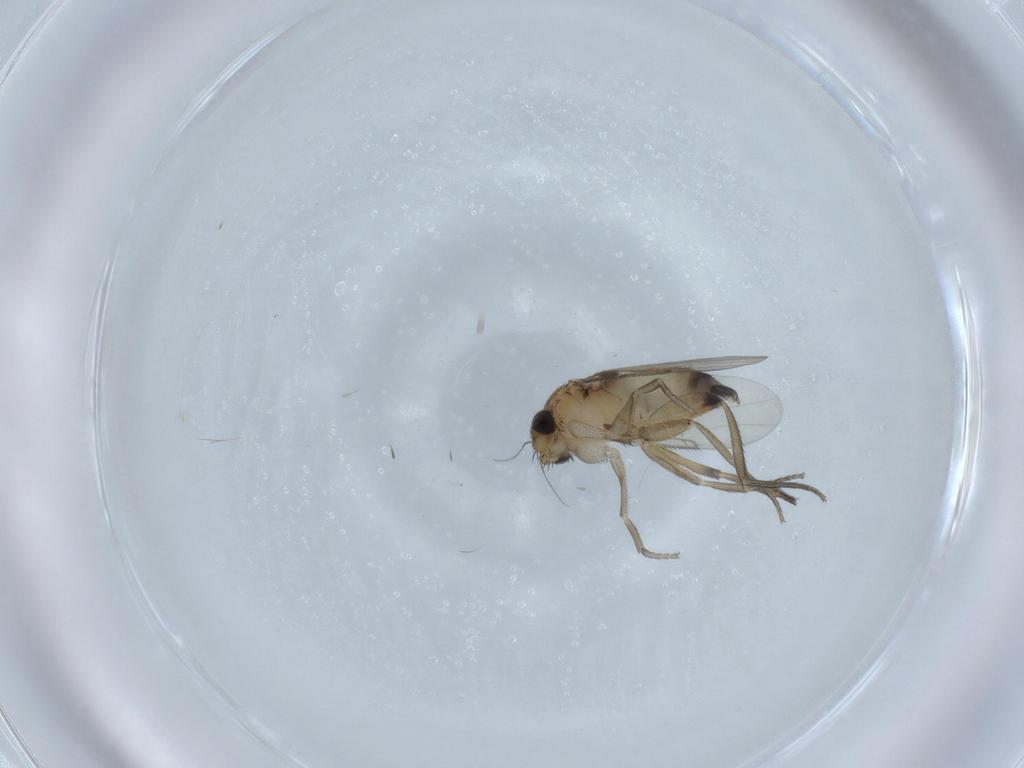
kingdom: Animalia
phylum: Arthropoda
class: Insecta
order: Diptera
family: Phoridae
